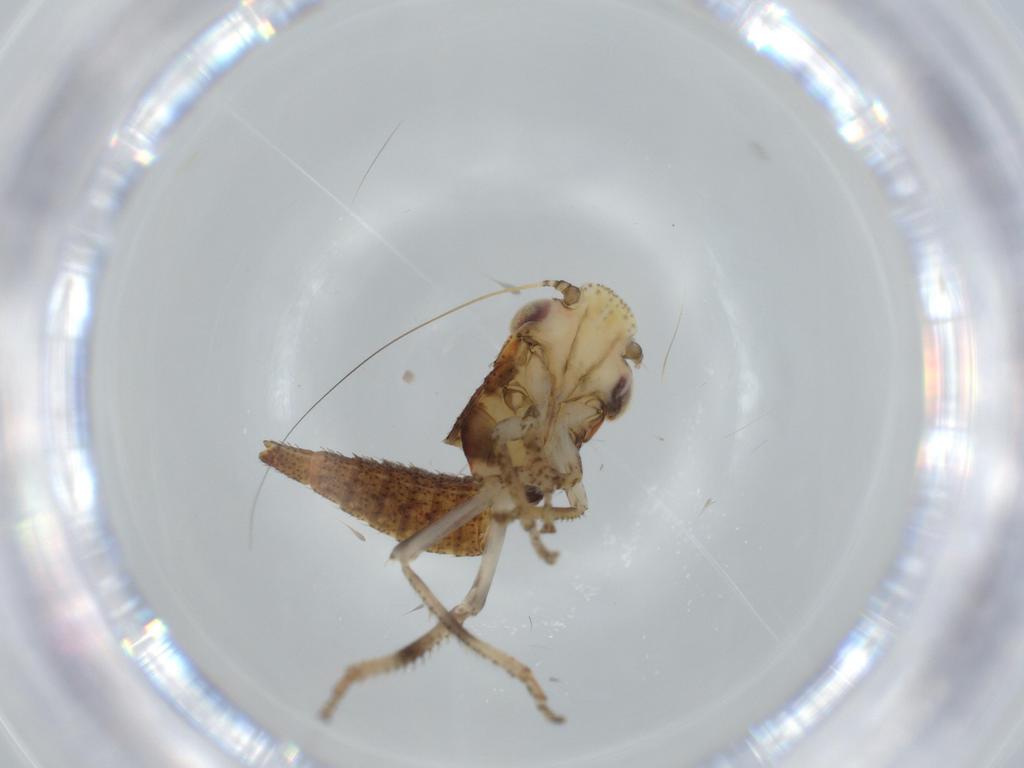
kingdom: Animalia
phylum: Arthropoda
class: Insecta
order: Hemiptera
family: Cicadellidae
